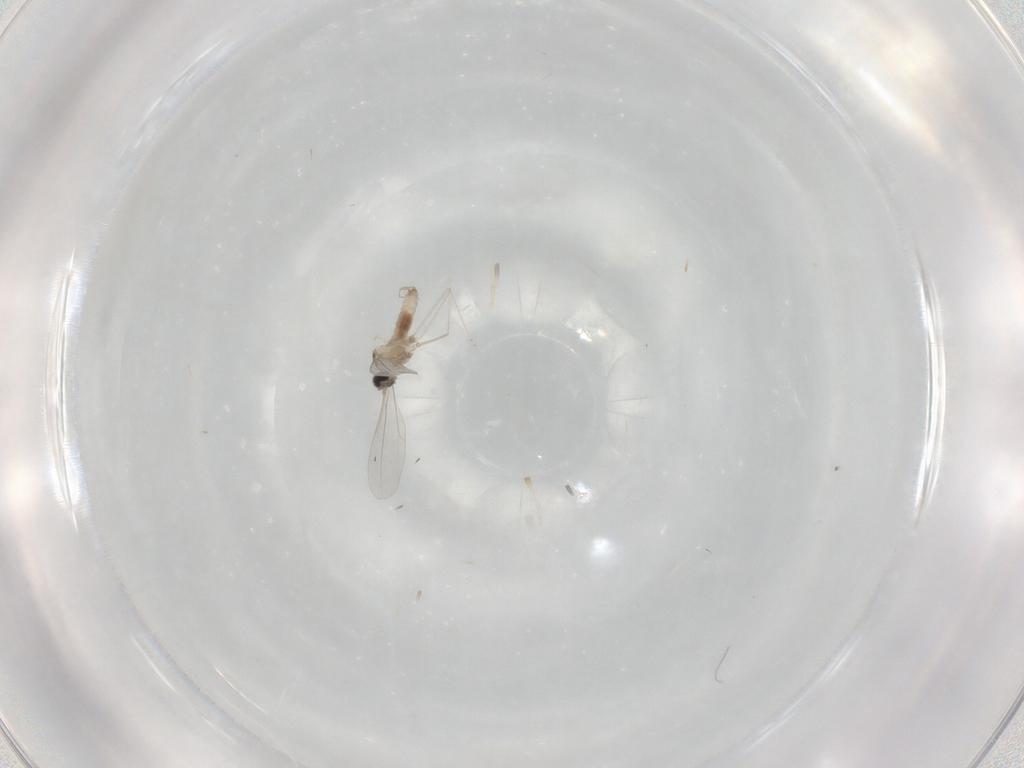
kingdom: Animalia
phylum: Arthropoda
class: Insecta
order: Diptera
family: Cecidomyiidae
